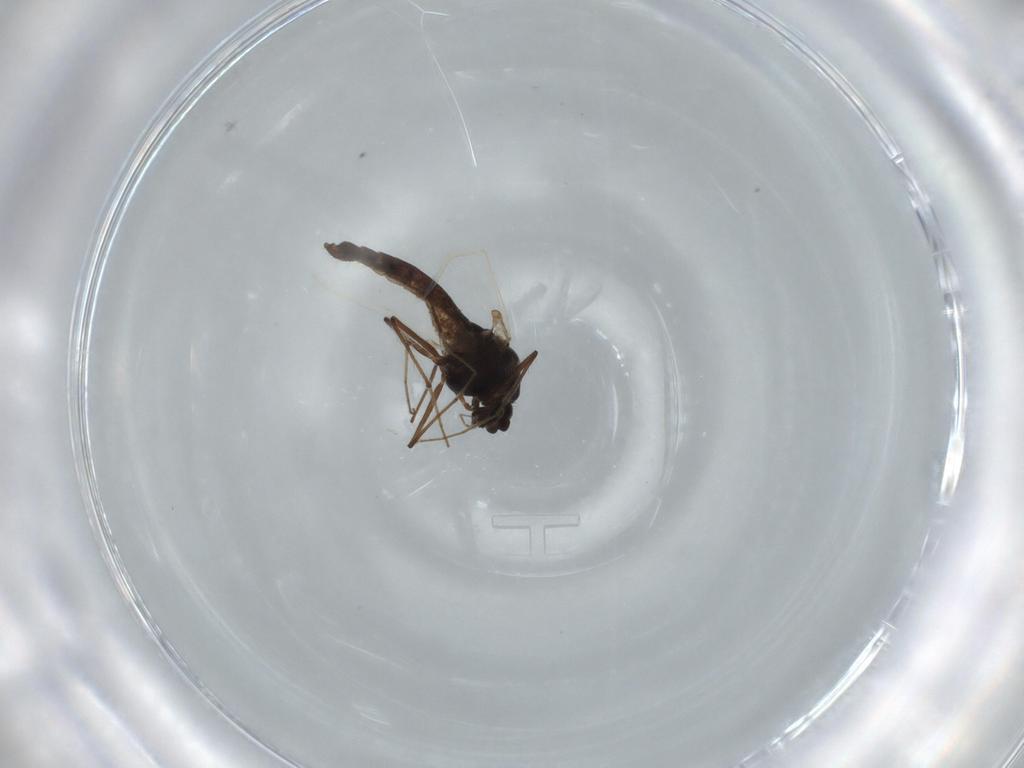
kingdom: Animalia
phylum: Arthropoda
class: Insecta
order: Diptera
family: Chironomidae
